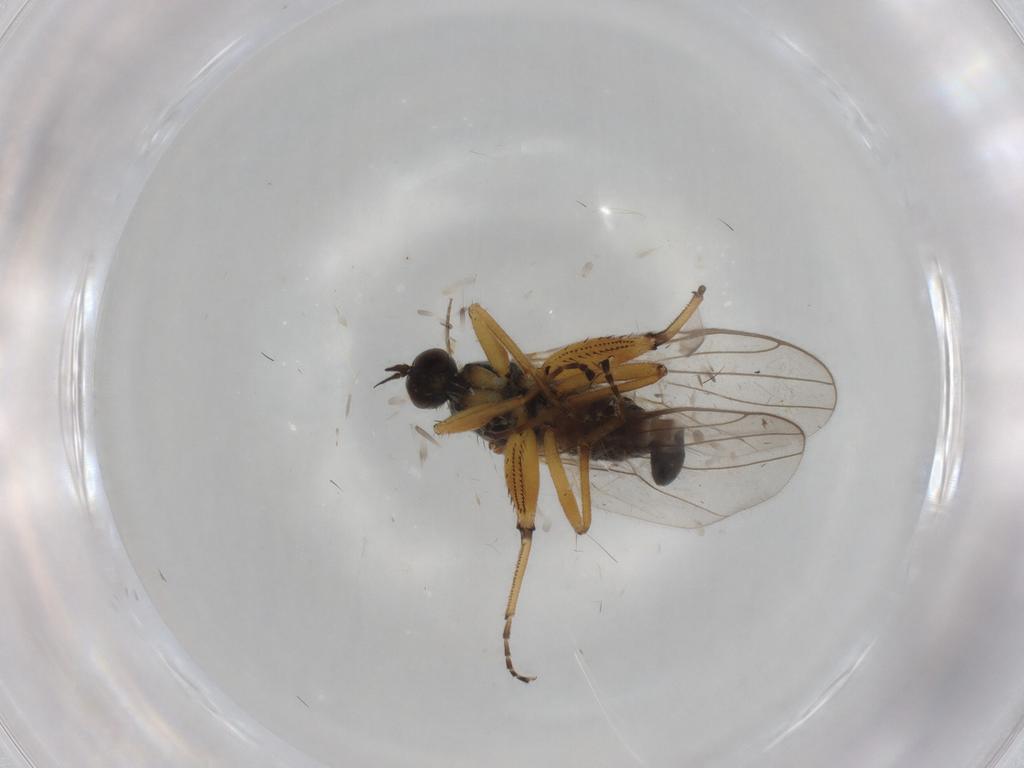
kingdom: Animalia
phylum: Arthropoda
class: Insecta
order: Diptera
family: Hybotidae
